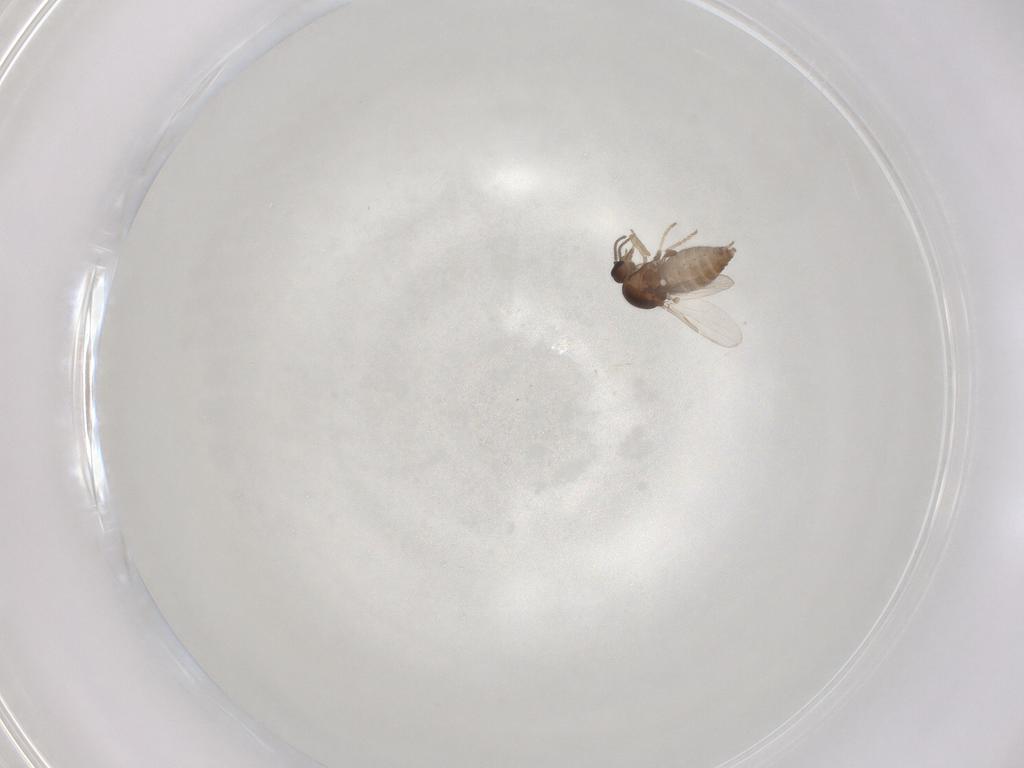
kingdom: Animalia
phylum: Arthropoda
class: Insecta
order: Diptera
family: Ceratopogonidae
